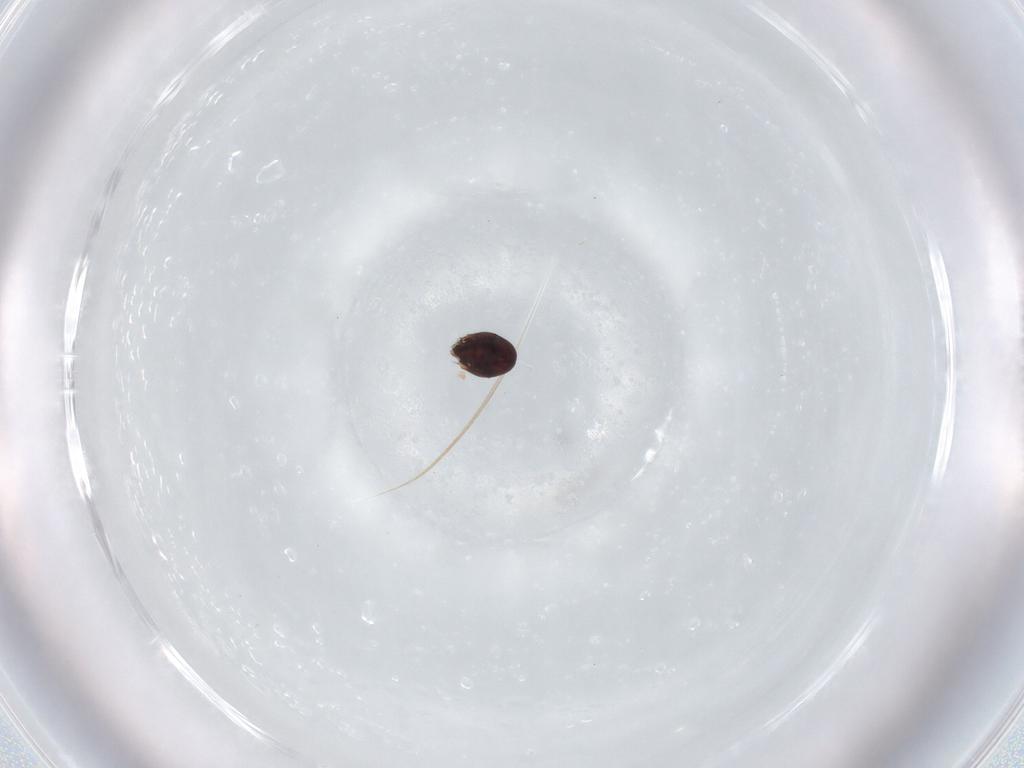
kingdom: Animalia
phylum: Arthropoda
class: Arachnida
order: Sarcoptiformes
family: Achipteriidae
